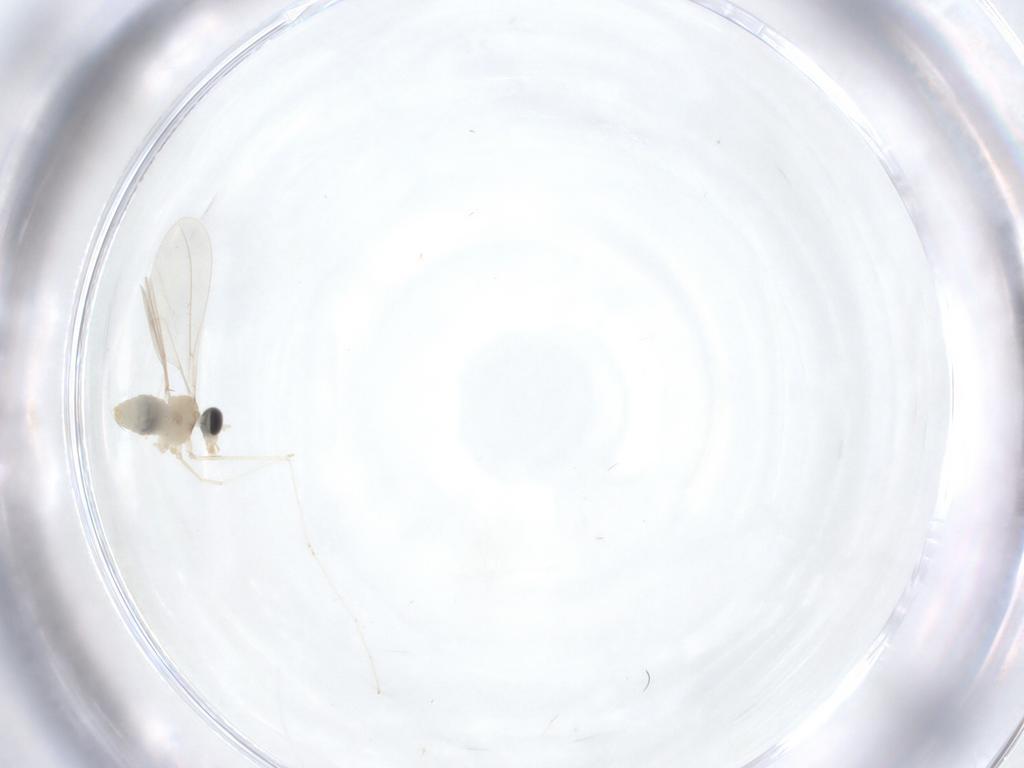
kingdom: Animalia
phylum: Arthropoda
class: Insecta
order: Diptera
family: Cecidomyiidae
